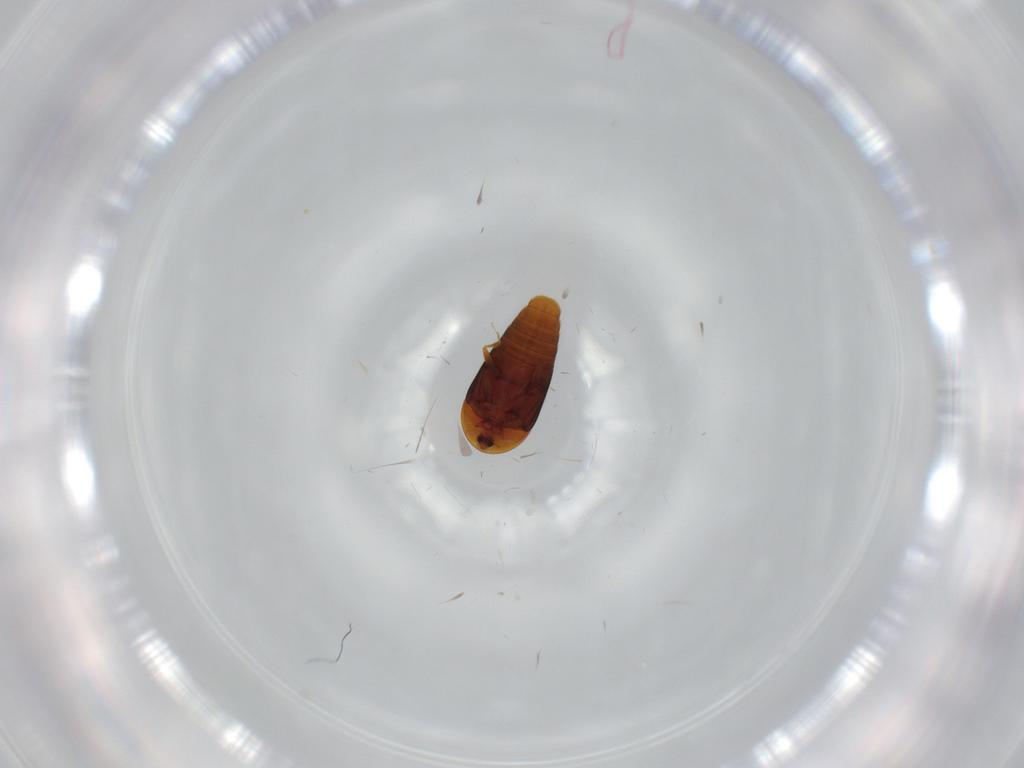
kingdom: Animalia
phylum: Arthropoda
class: Insecta
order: Coleoptera
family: Corylophidae
